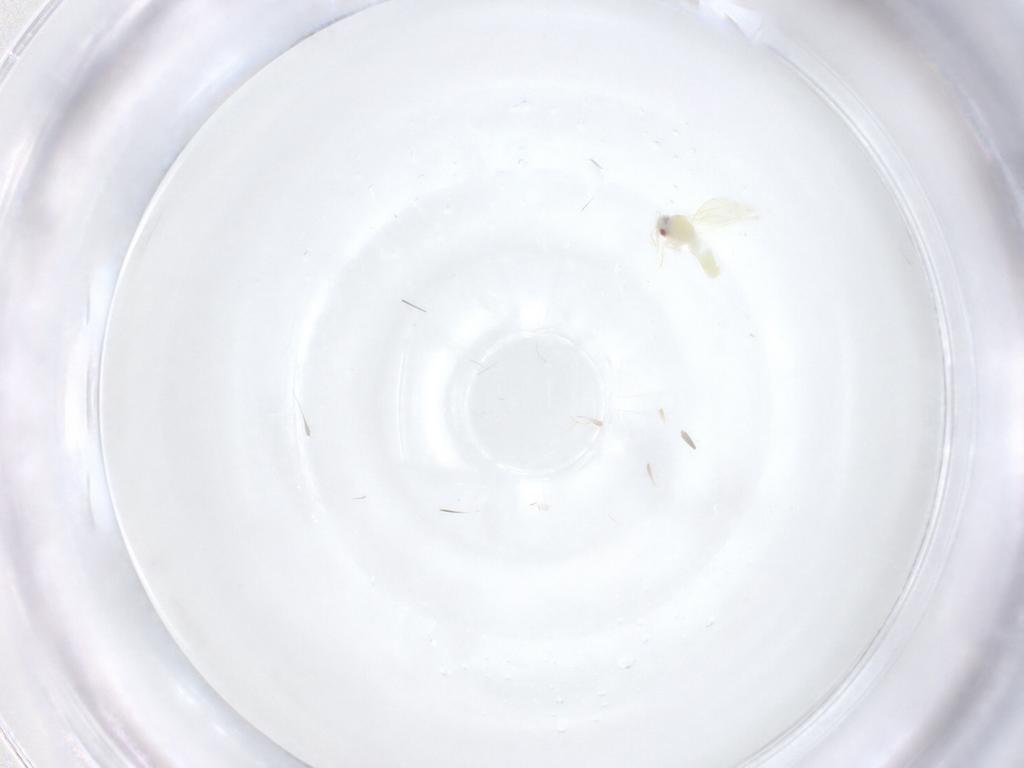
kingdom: Animalia
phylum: Arthropoda
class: Insecta
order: Hemiptera
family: Aleyrodidae
